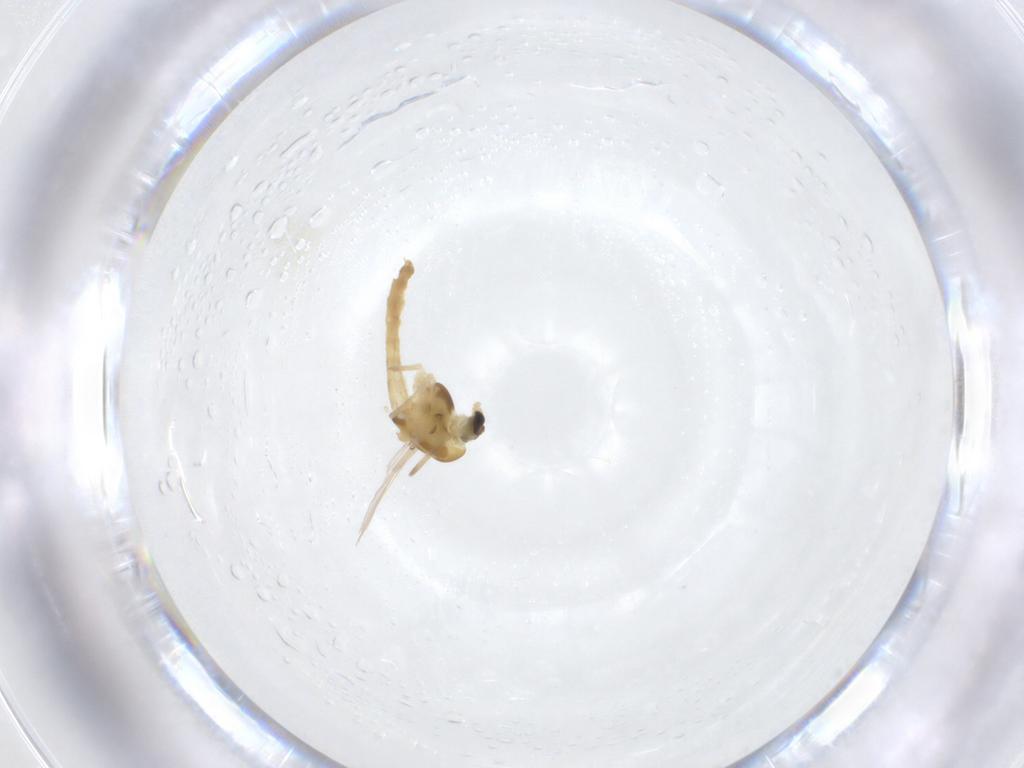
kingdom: Animalia
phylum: Arthropoda
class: Insecta
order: Diptera
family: Chironomidae
